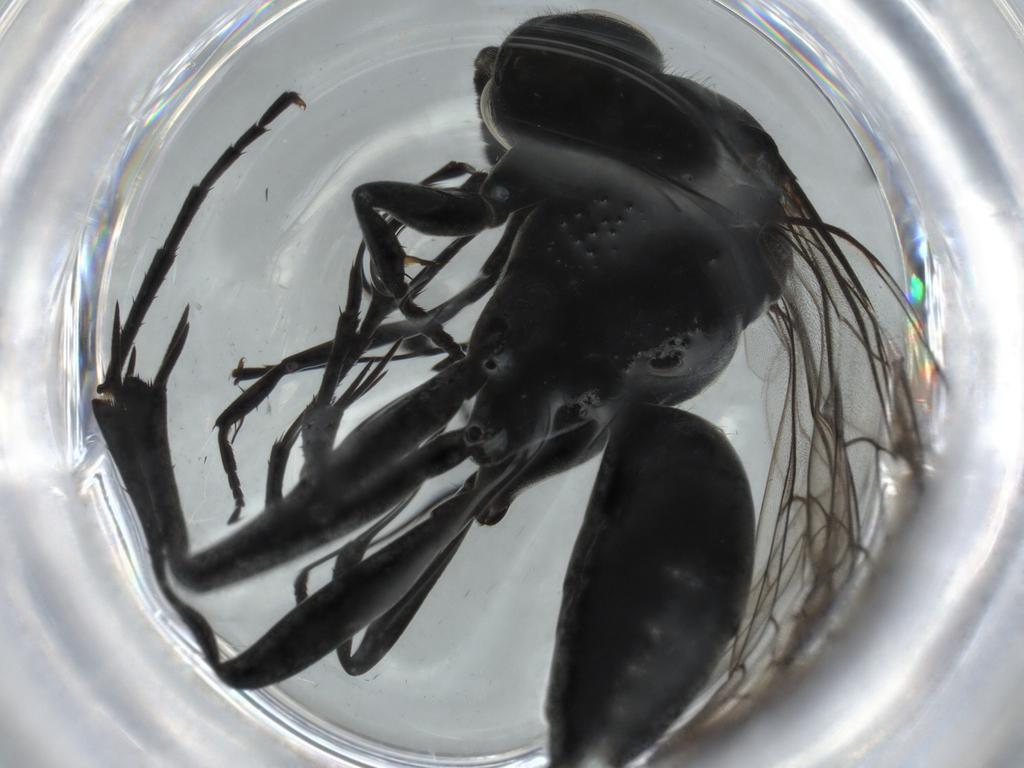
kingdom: Animalia
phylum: Arthropoda
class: Insecta
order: Hymenoptera
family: Pompilidae
